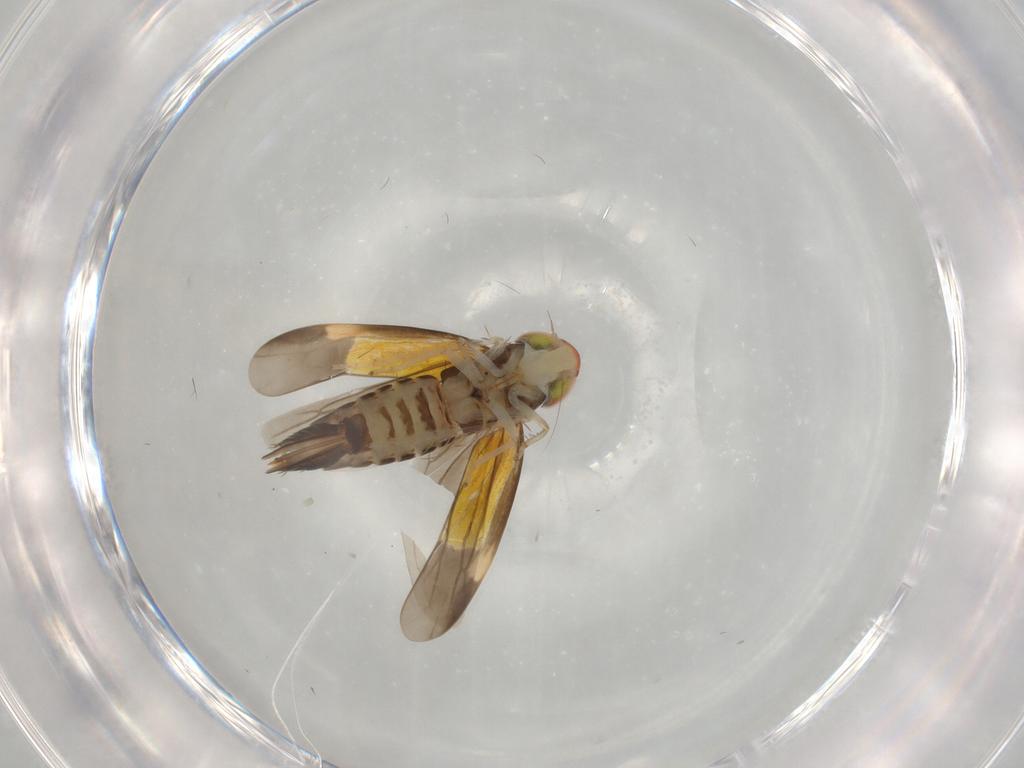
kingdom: Animalia
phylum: Arthropoda
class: Insecta
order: Hemiptera
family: Cicadellidae
